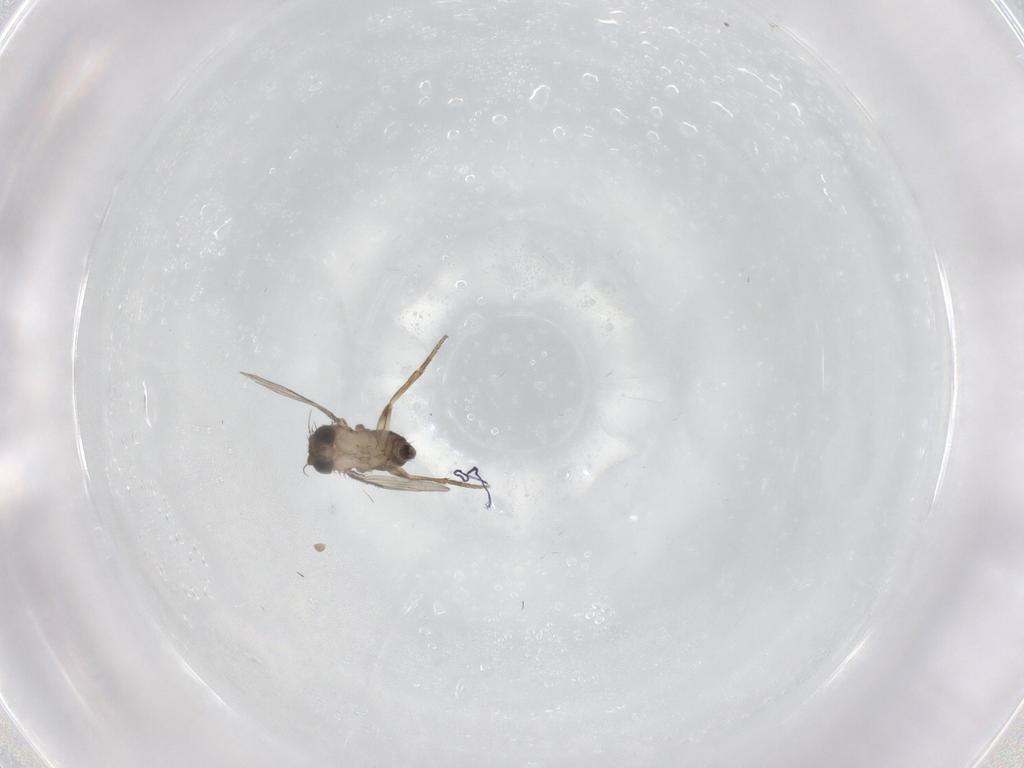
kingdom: Animalia
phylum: Arthropoda
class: Insecta
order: Diptera
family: Phoridae
